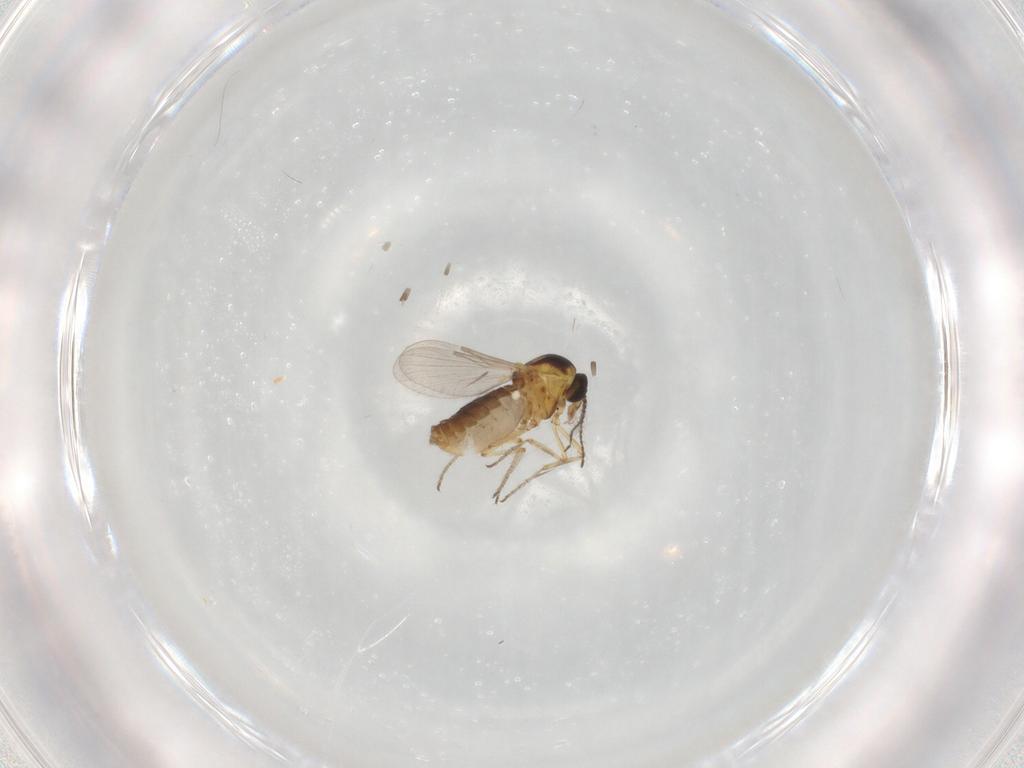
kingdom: Animalia
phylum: Arthropoda
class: Insecta
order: Diptera
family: Ceratopogonidae
